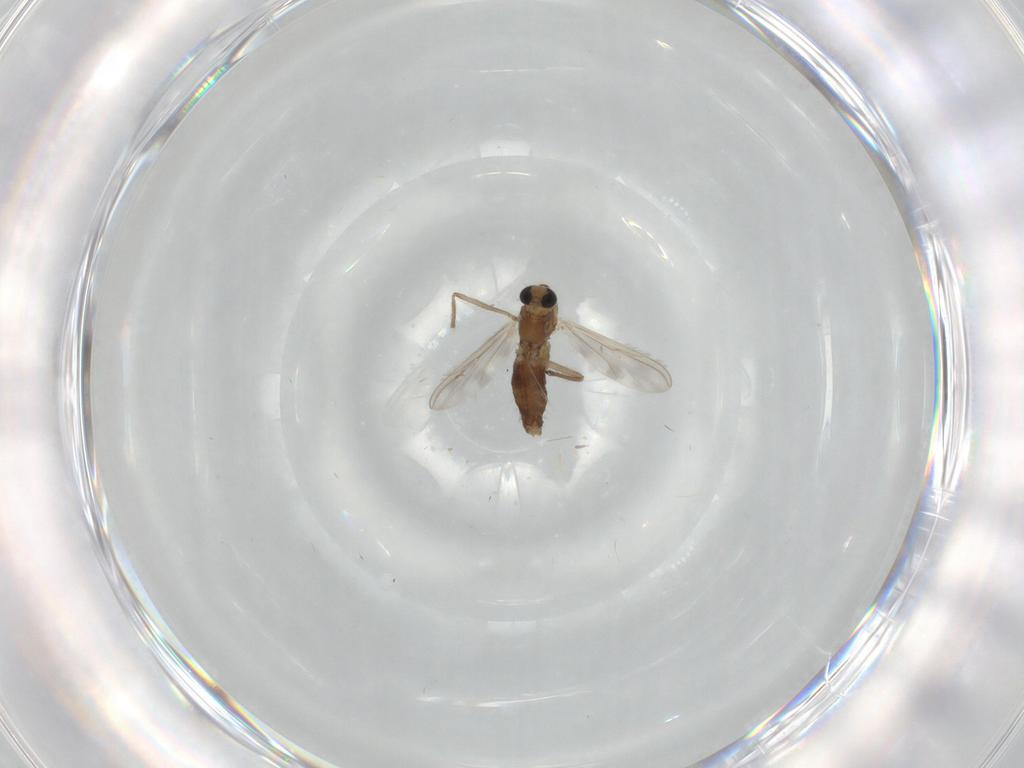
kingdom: Animalia
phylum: Arthropoda
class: Insecta
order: Diptera
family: Chironomidae
